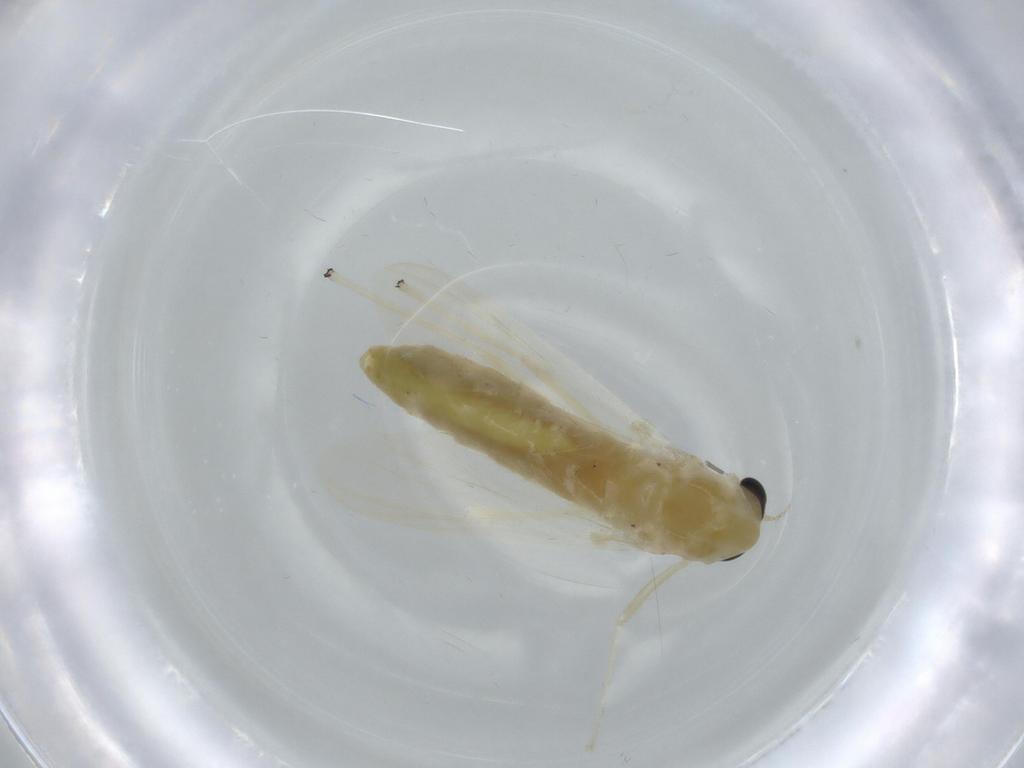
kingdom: Animalia
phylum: Arthropoda
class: Insecta
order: Diptera
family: Chironomidae
